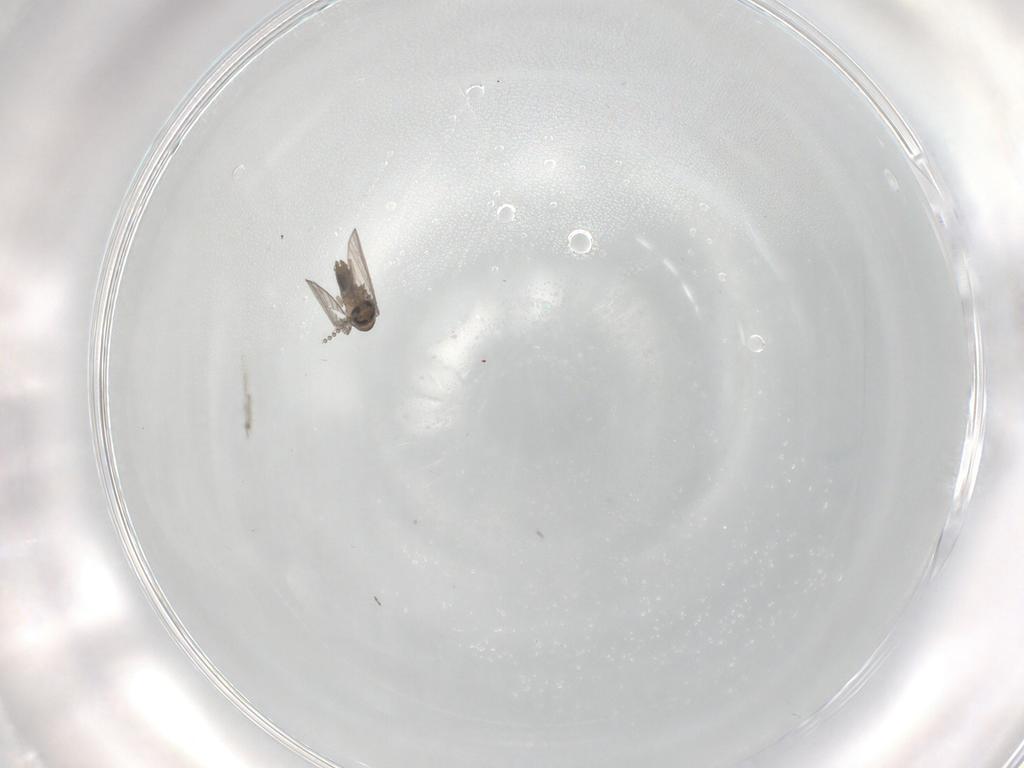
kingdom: Animalia
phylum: Arthropoda
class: Insecta
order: Diptera
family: Chironomidae
